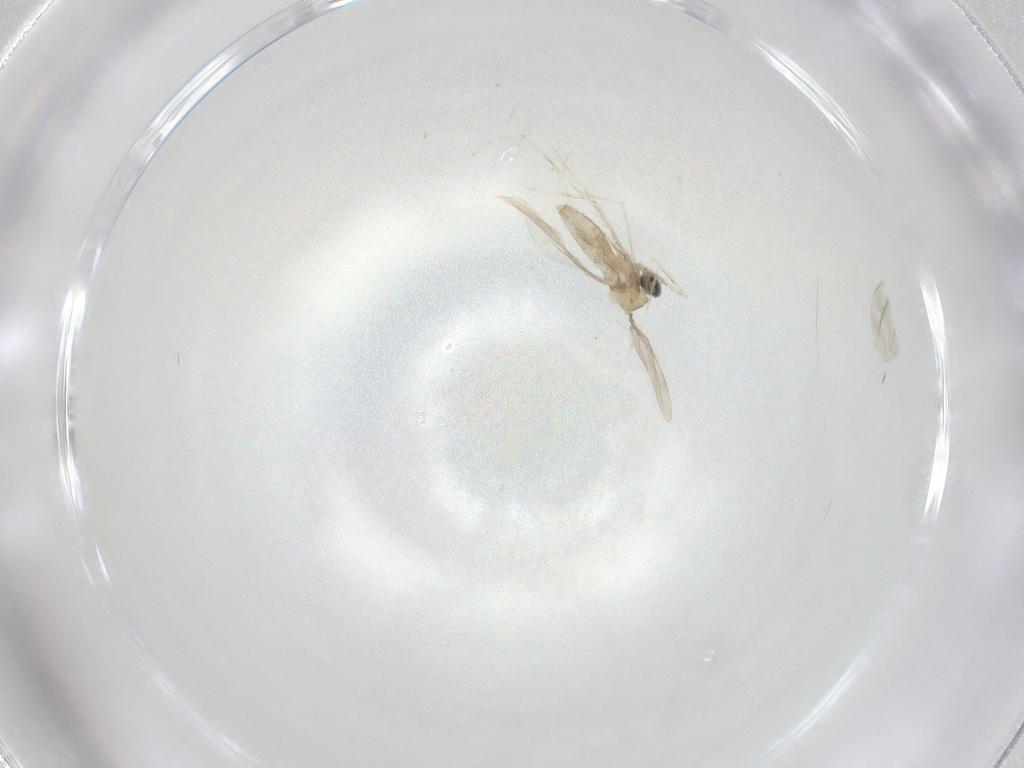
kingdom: Animalia
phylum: Arthropoda
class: Insecta
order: Diptera
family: Cecidomyiidae
